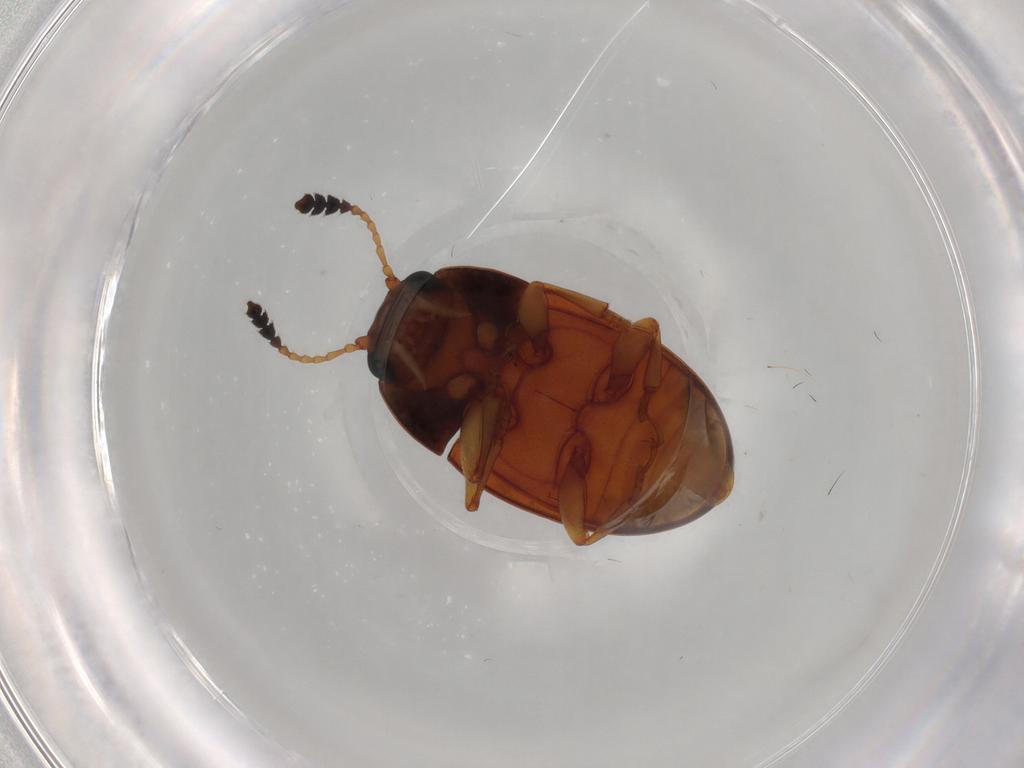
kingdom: Animalia
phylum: Arthropoda
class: Insecta
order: Coleoptera
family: Erotylidae
